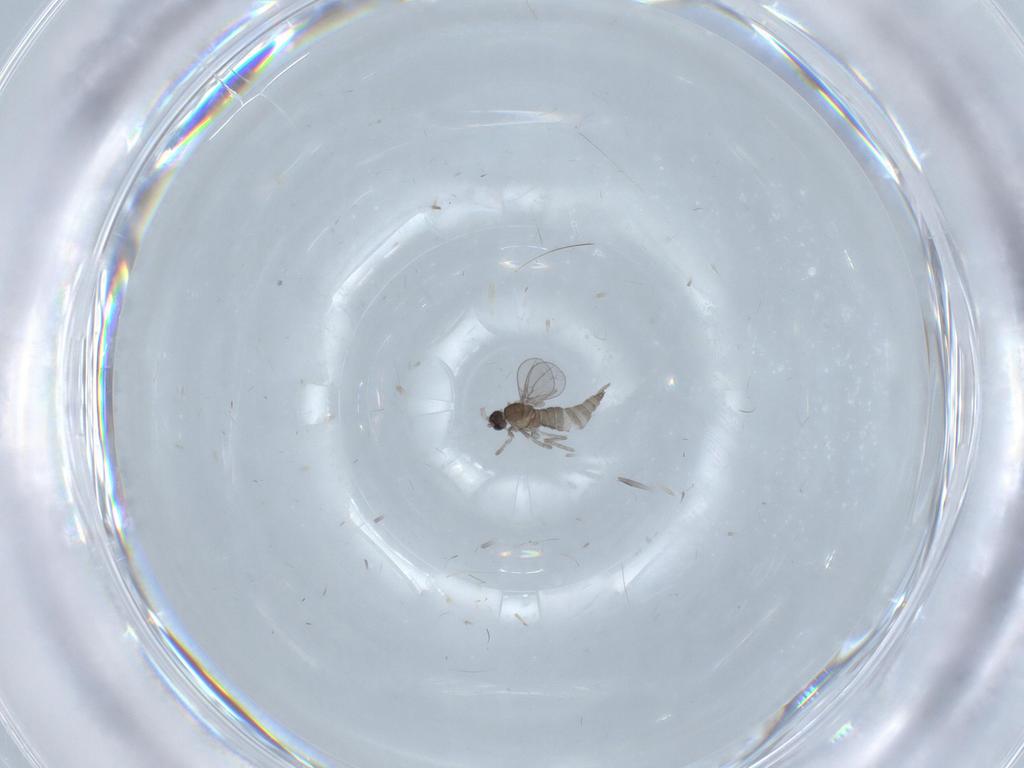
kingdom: Animalia
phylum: Arthropoda
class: Insecta
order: Diptera
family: Cecidomyiidae
